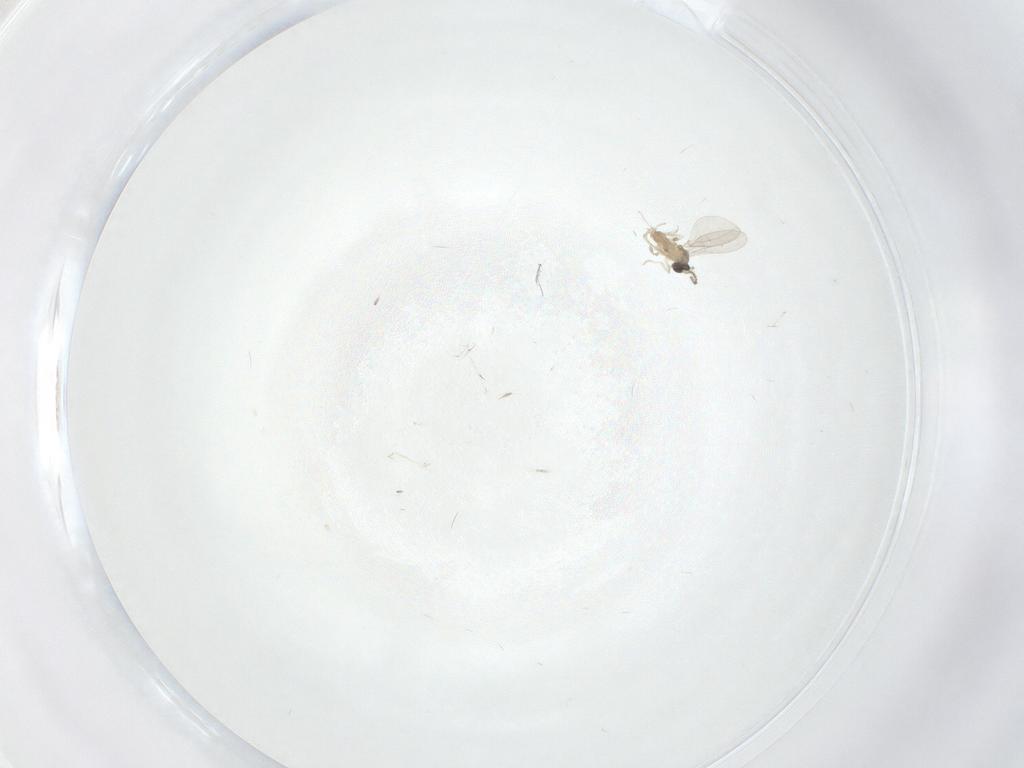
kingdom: Animalia
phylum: Arthropoda
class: Insecta
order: Diptera
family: Cecidomyiidae
